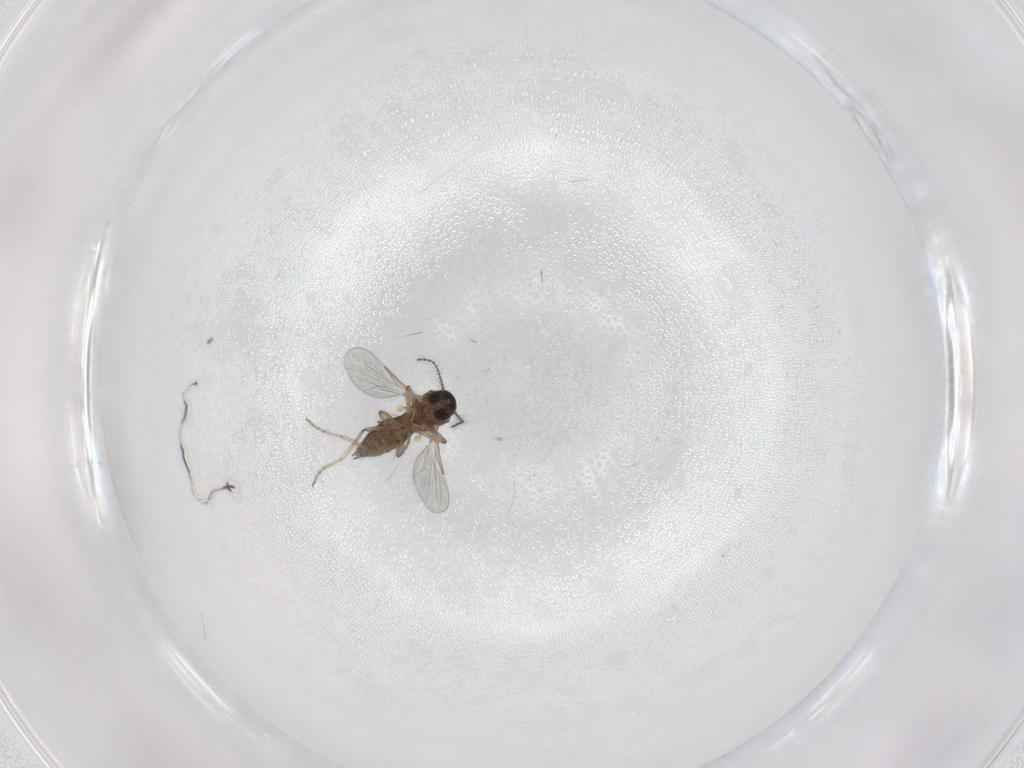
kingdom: Animalia
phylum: Arthropoda
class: Insecta
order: Diptera
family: Ceratopogonidae
